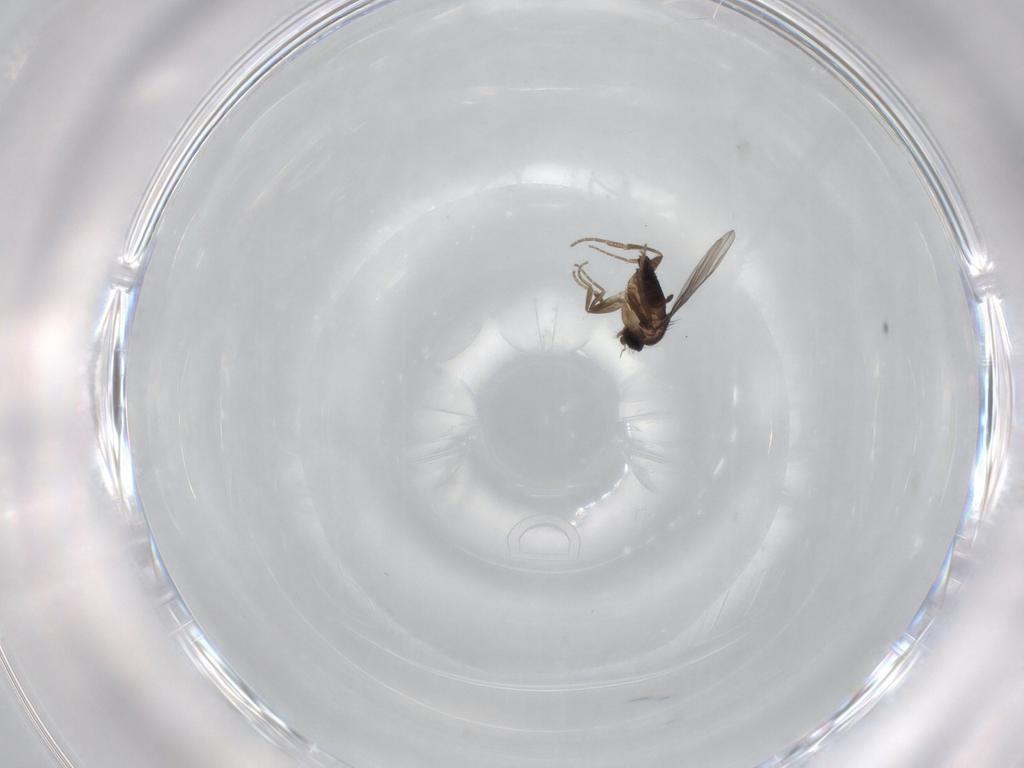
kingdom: Animalia
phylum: Arthropoda
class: Insecta
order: Diptera
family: Phoridae
